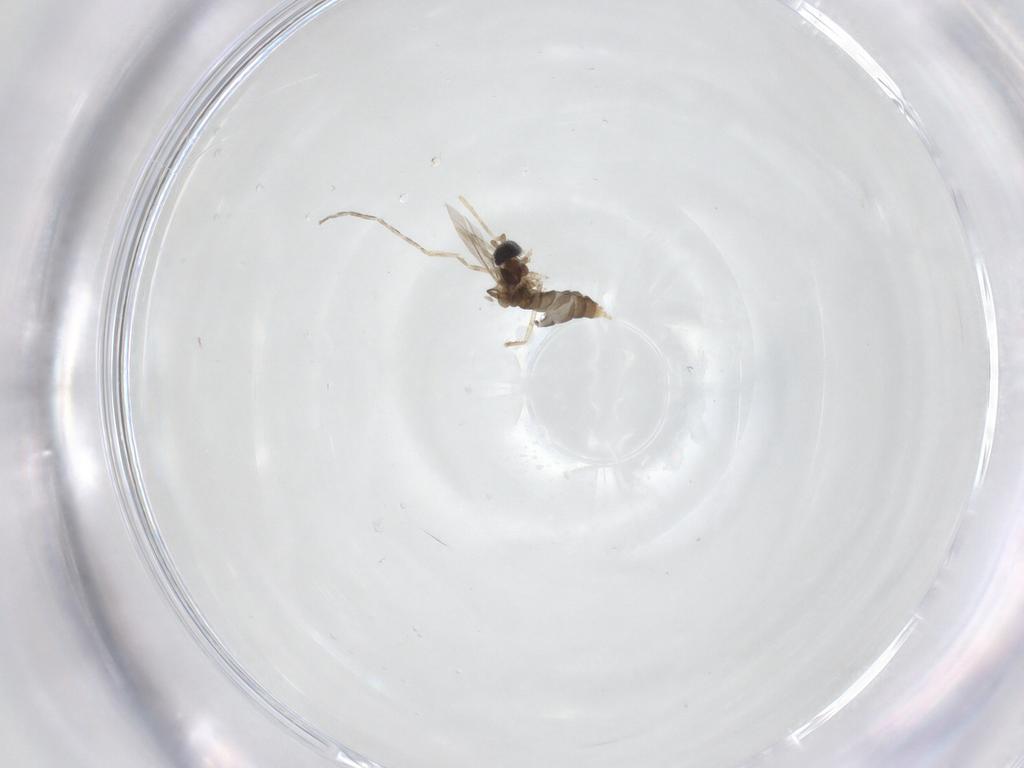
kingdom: Animalia
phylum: Arthropoda
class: Insecta
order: Diptera
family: Cecidomyiidae
